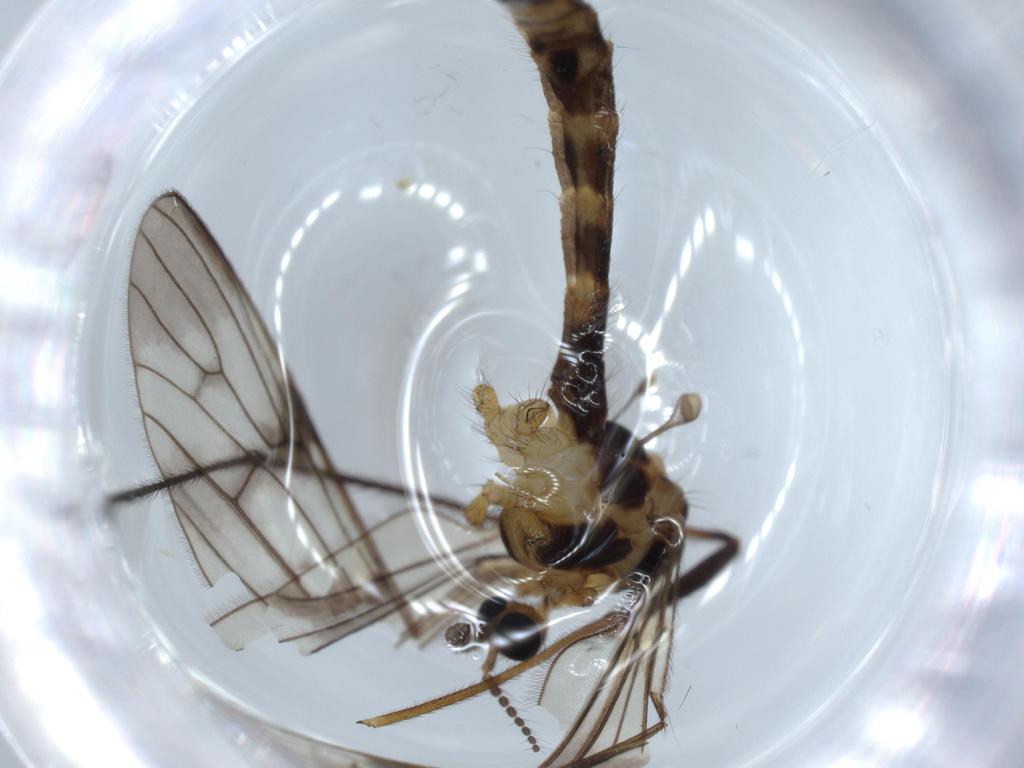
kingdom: Animalia
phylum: Arthropoda
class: Insecta
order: Diptera
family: Limoniidae
